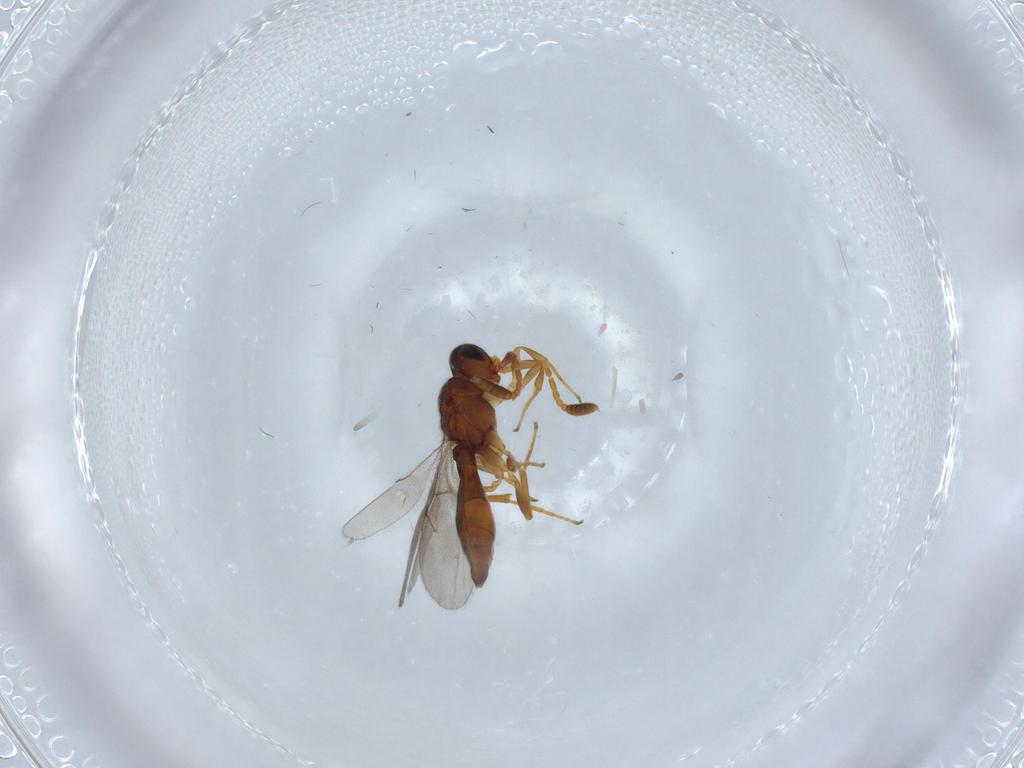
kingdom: Animalia
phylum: Arthropoda
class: Insecta
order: Hymenoptera
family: Scelionidae
